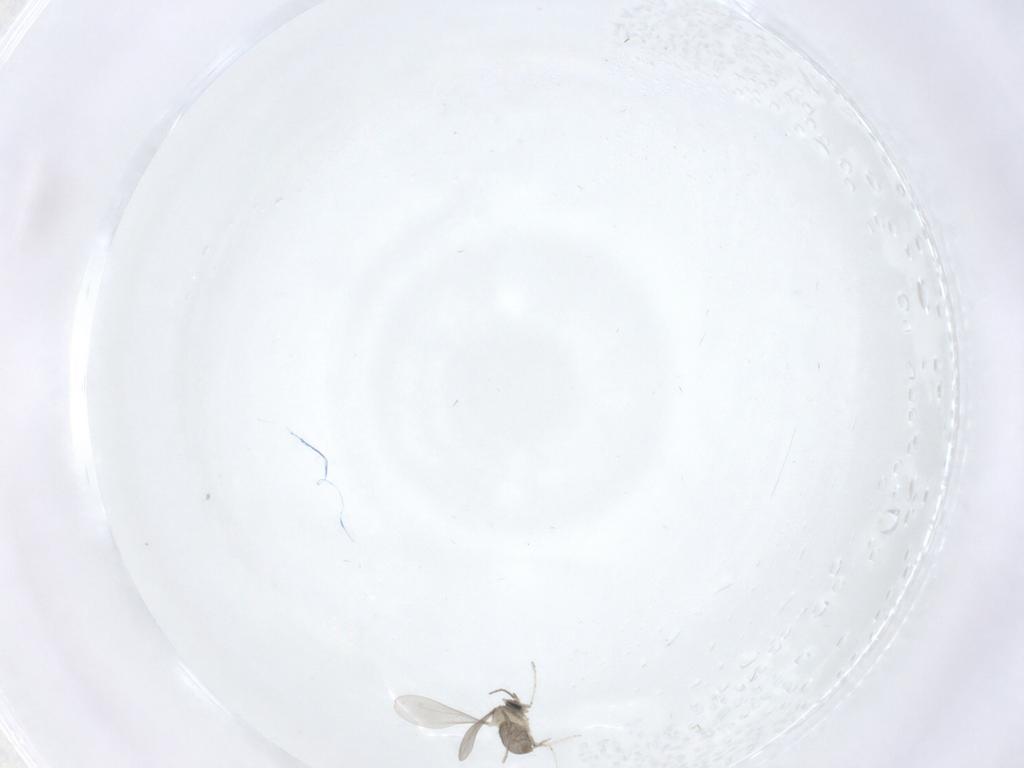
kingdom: Animalia
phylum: Arthropoda
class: Insecta
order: Diptera
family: Cecidomyiidae
